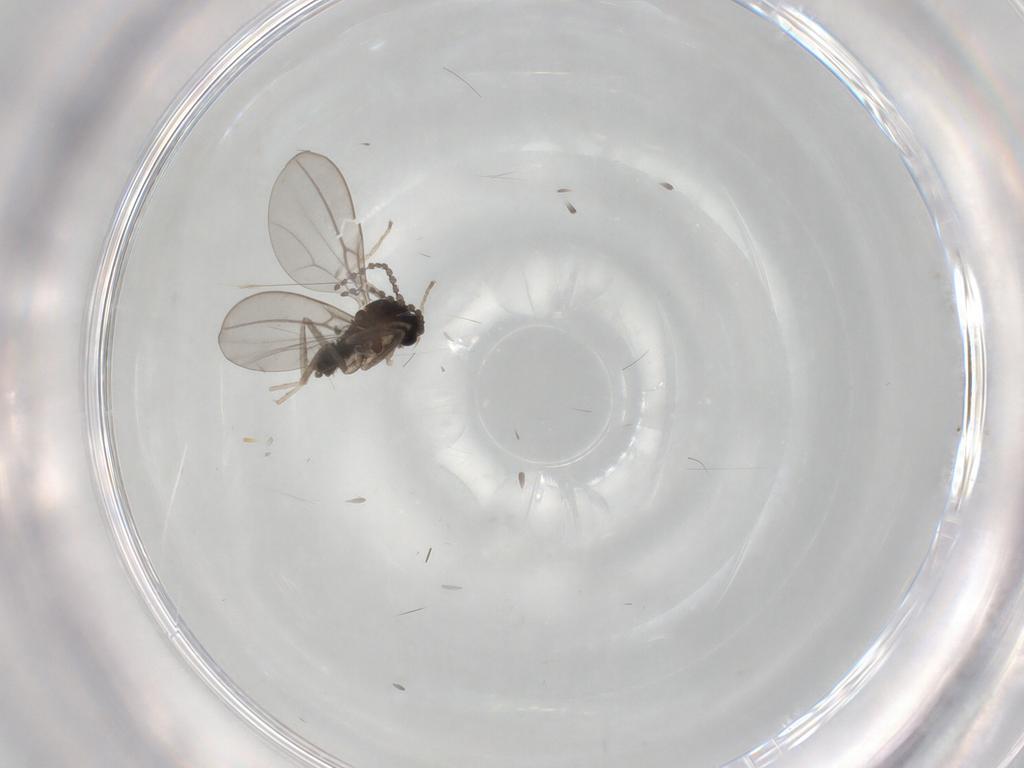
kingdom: Animalia
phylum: Arthropoda
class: Insecta
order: Diptera
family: Cecidomyiidae
